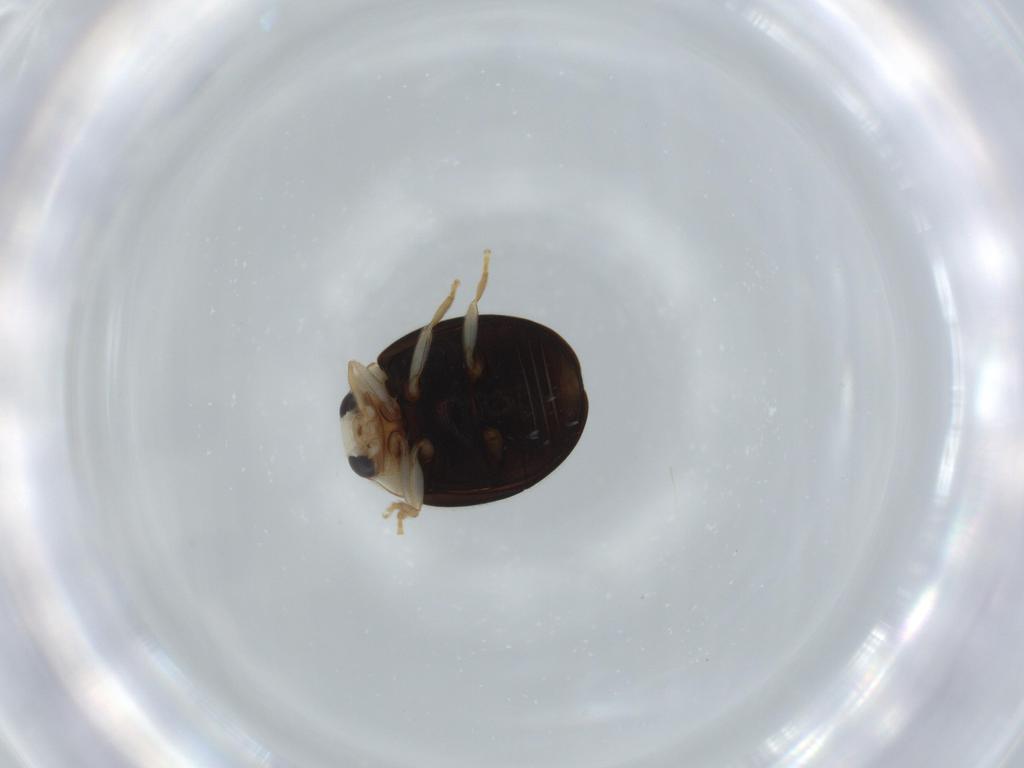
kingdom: Animalia
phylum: Arthropoda
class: Insecta
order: Coleoptera
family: Coccinellidae
